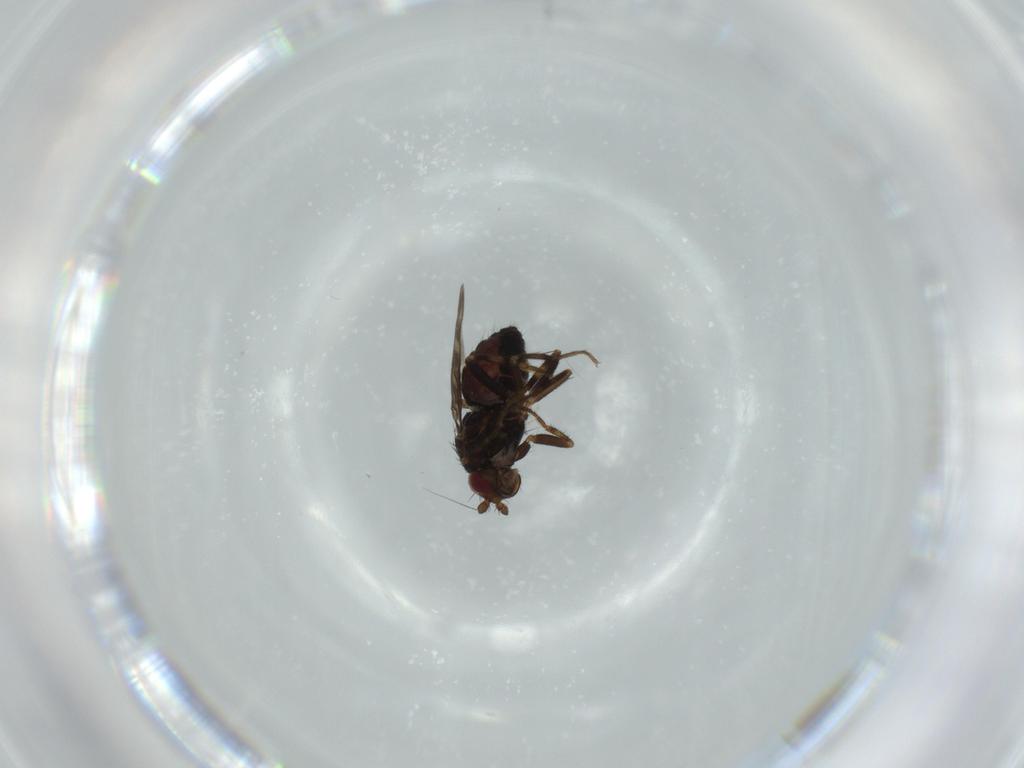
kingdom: Animalia
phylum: Arthropoda
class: Insecta
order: Diptera
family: Sphaeroceridae
